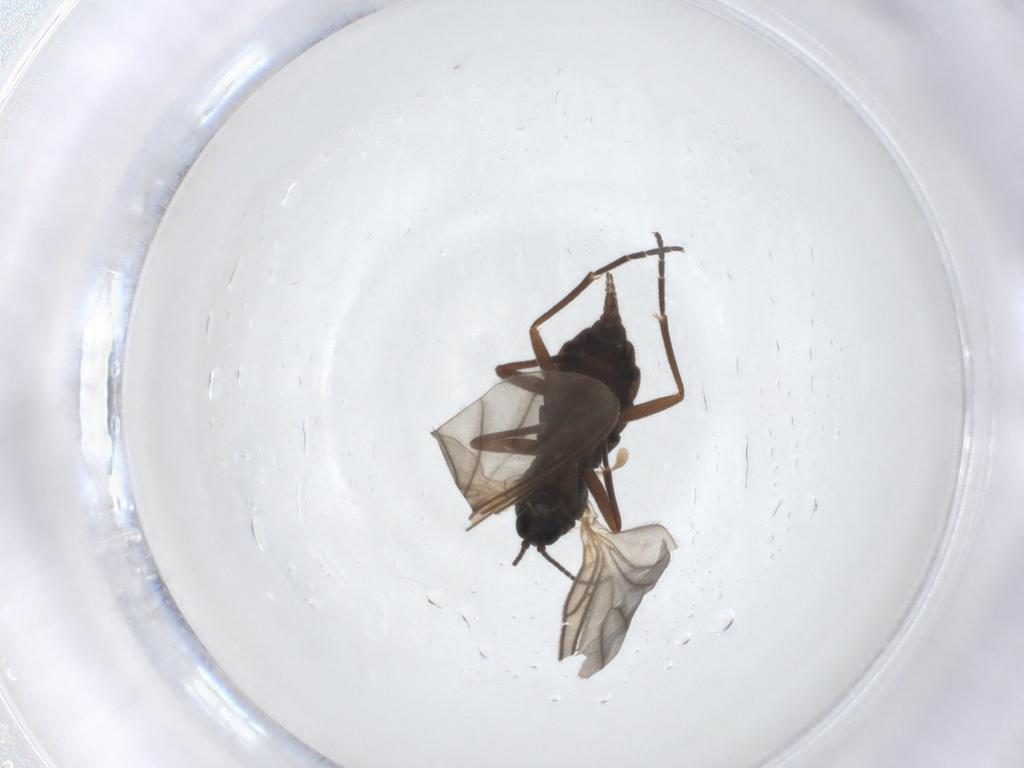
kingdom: Animalia
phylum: Arthropoda
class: Insecta
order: Diptera
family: Sciaridae
